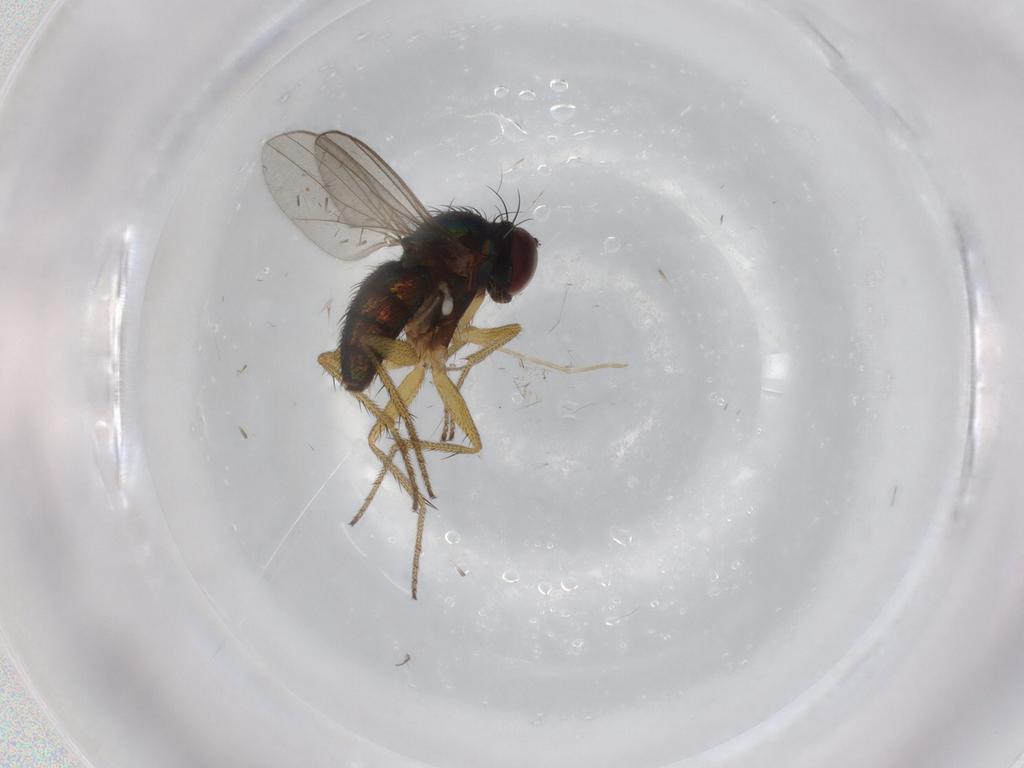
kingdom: Animalia
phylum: Arthropoda
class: Insecta
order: Diptera
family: Dolichopodidae
